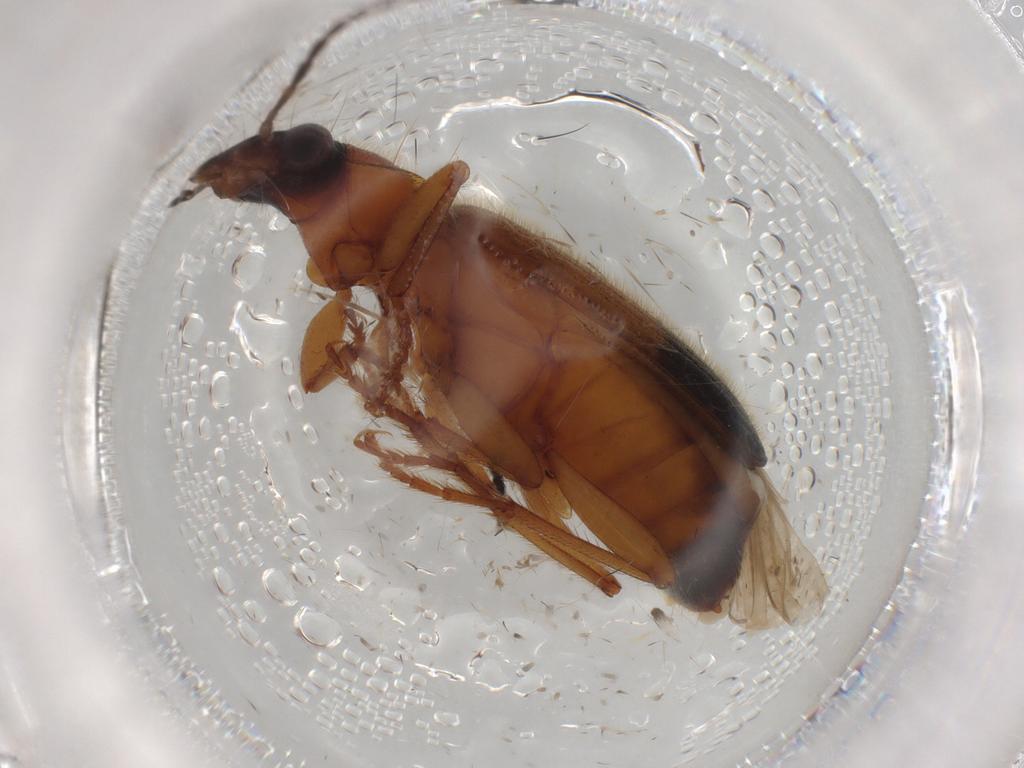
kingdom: Animalia
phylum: Arthropoda
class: Insecta
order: Coleoptera
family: Carabidae
